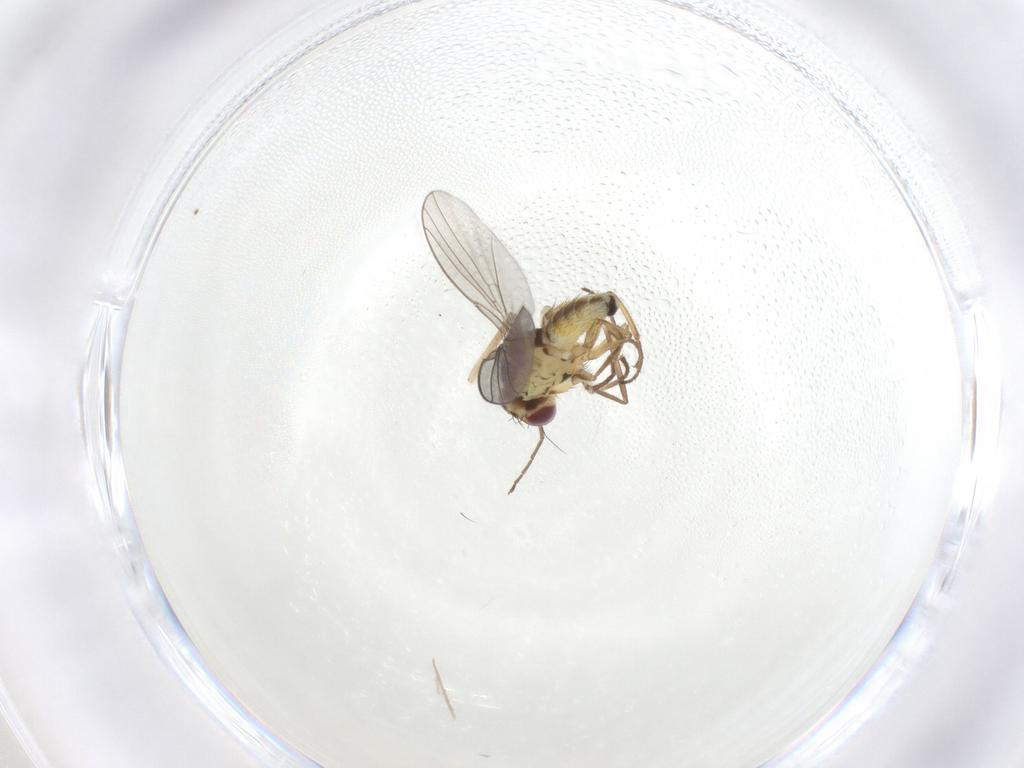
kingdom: Animalia
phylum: Arthropoda
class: Insecta
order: Diptera
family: Agromyzidae
